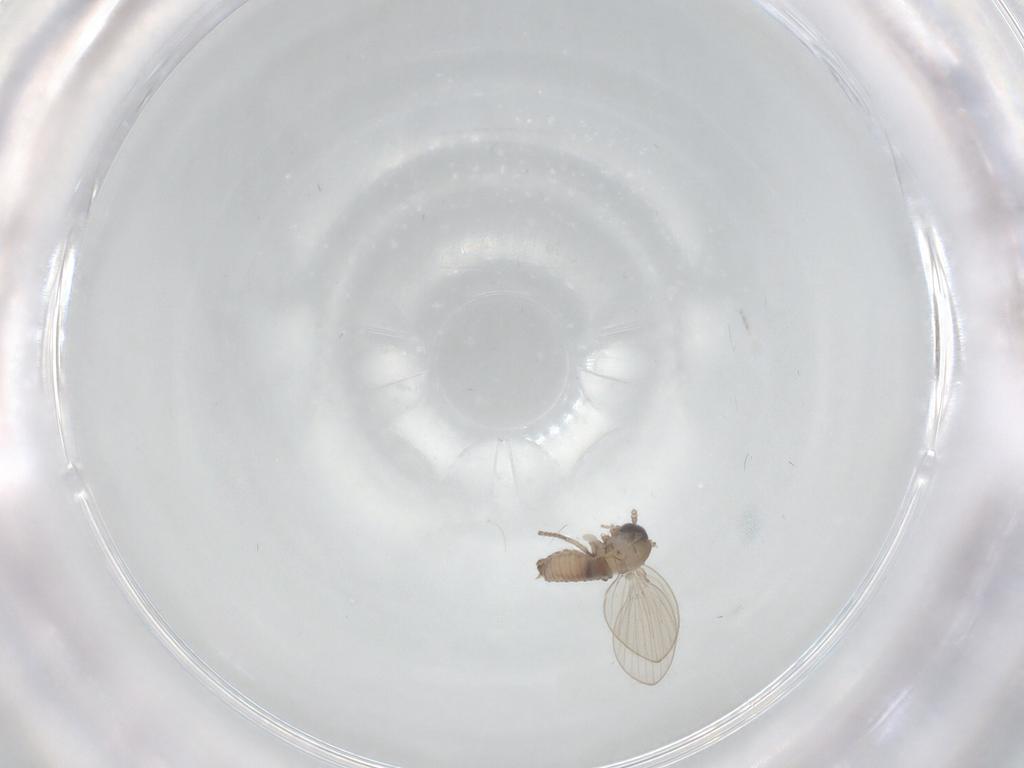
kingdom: Animalia
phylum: Arthropoda
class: Insecta
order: Diptera
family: Psychodidae
